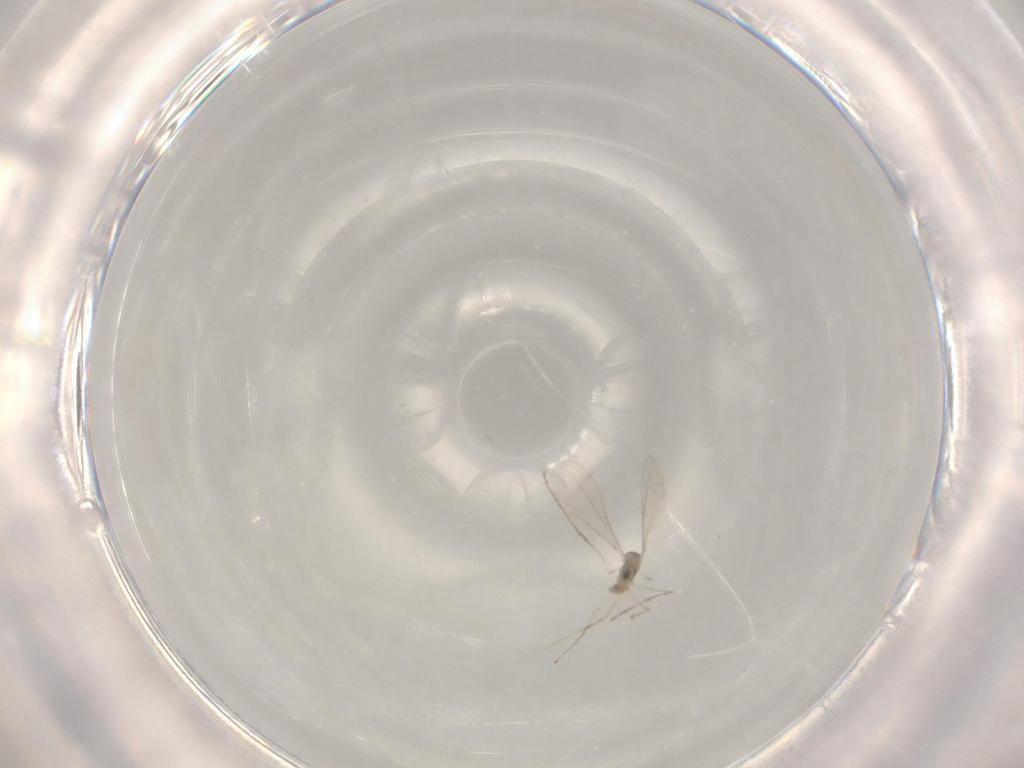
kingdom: Animalia
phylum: Arthropoda
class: Insecta
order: Diptera
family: Cecidomyiidae
